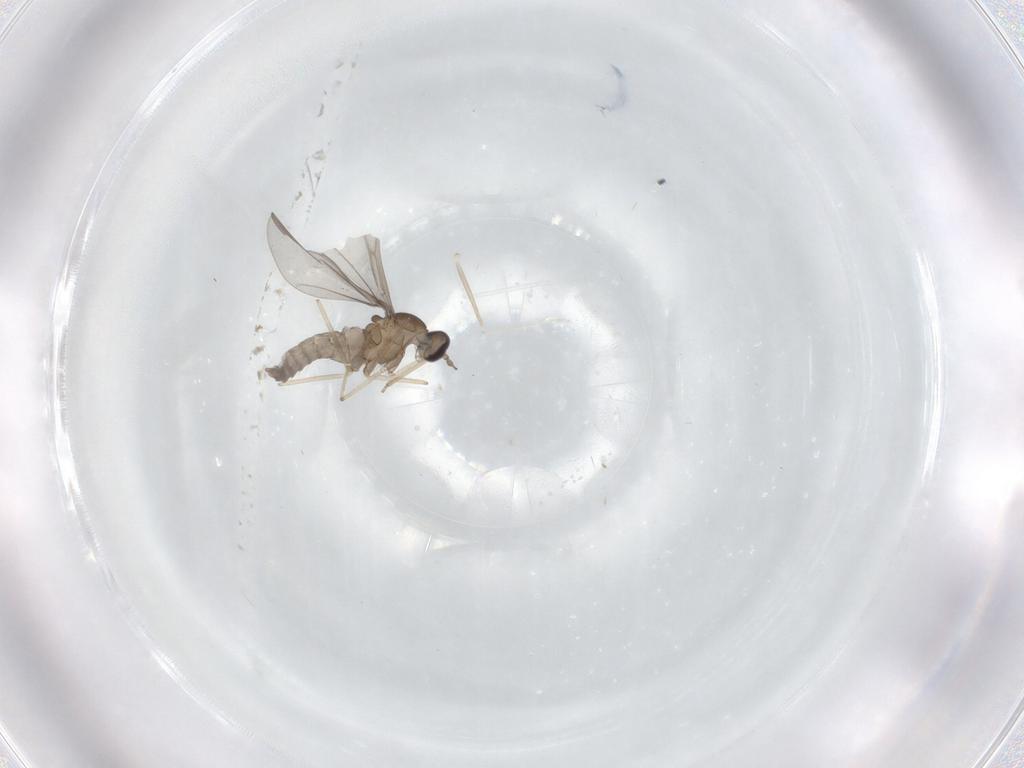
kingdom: Animalia
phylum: Arthropoda
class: Insecta
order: Diptera
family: Cecidomyiidae
